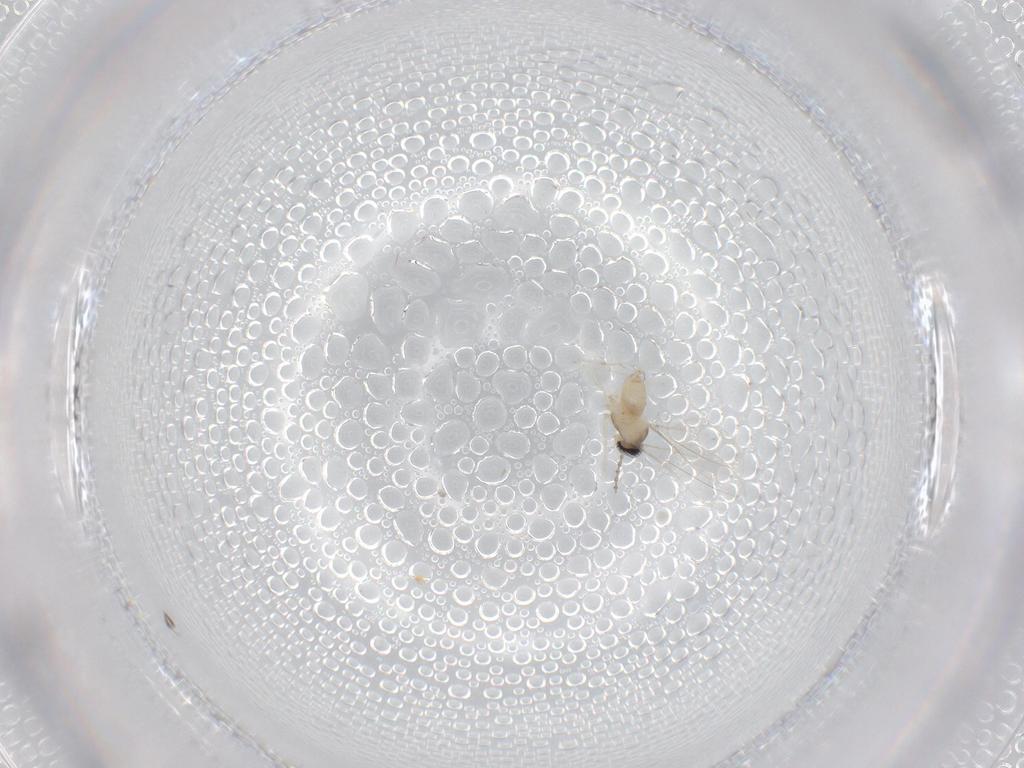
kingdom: Animalia
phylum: Arthropoda
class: Insecta
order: Diptera
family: Cecidomyiidae
